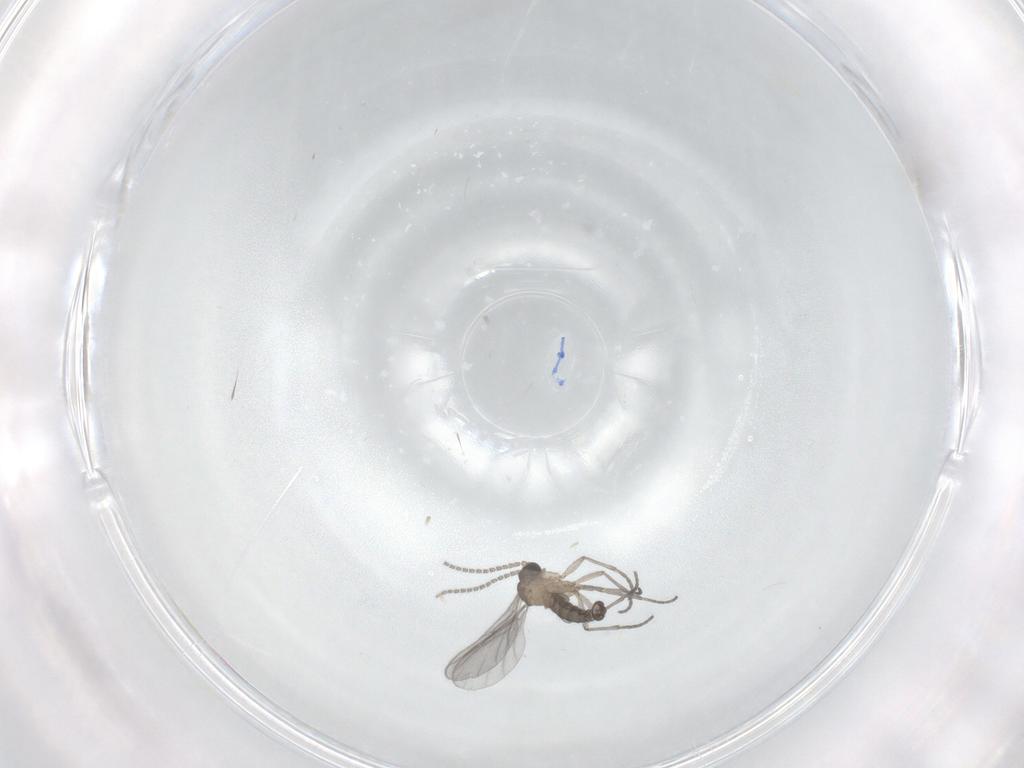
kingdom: Animalia
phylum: Arthropoda
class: Insecta
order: Diptera
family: Sciaridae
